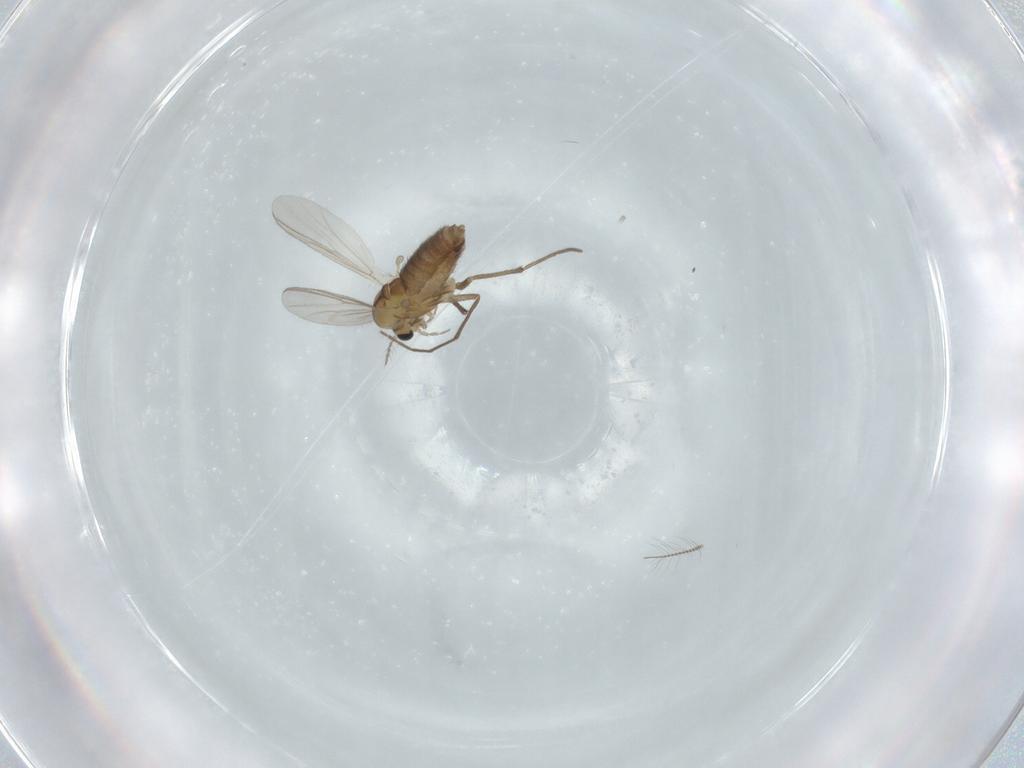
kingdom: Animalia
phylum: Arthropoda
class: Insecta
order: Diptera
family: Chironomidae
